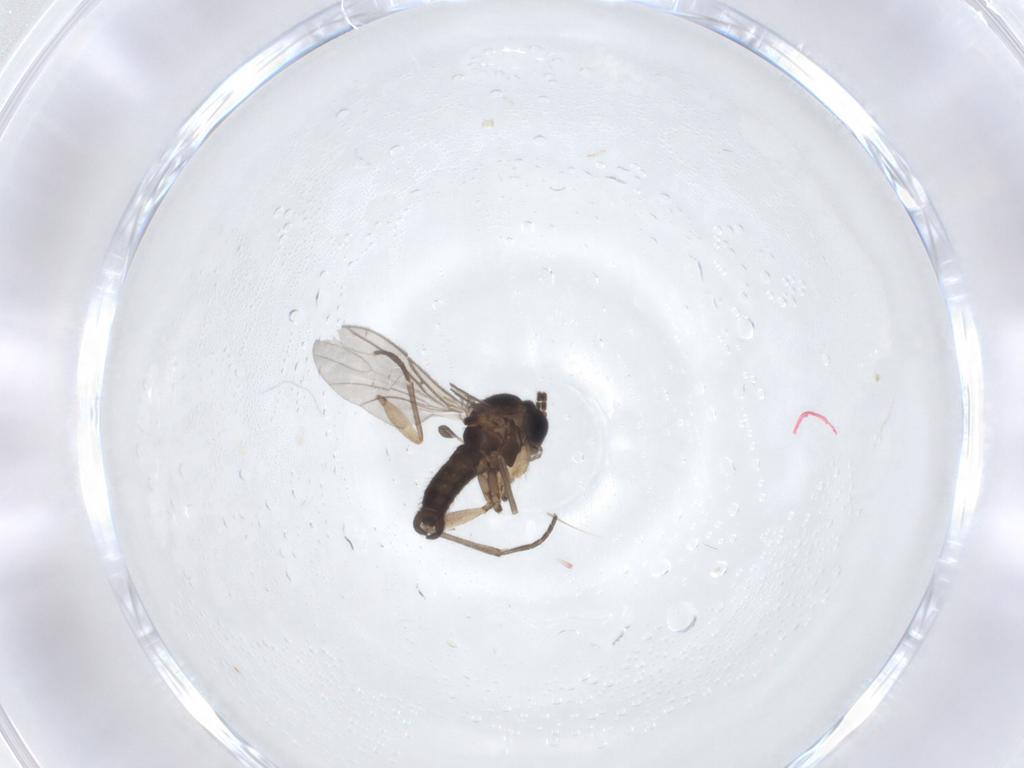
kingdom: Animalia
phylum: Arthropoda
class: Insecta
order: Diptera
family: Sciaridae
